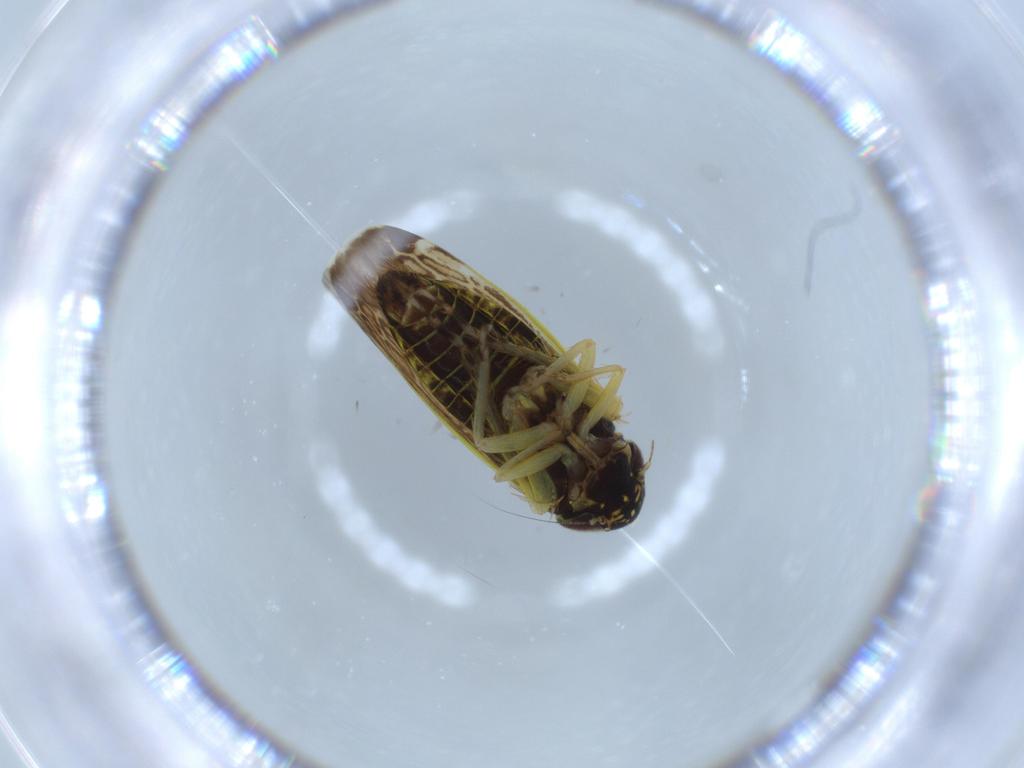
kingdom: Animalia
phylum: Arthropoda
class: Insecta
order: Hemiptera
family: Cicadellidae
